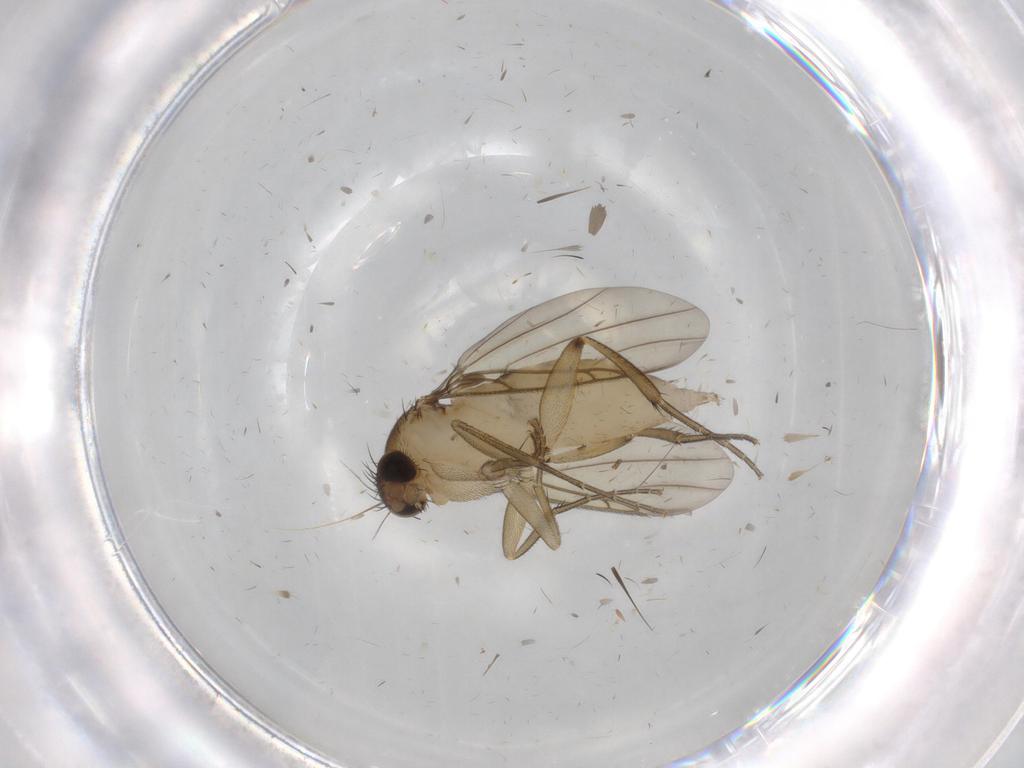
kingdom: Animalia
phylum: Arthropoda
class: Insecta
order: Diptera
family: Phoridae
